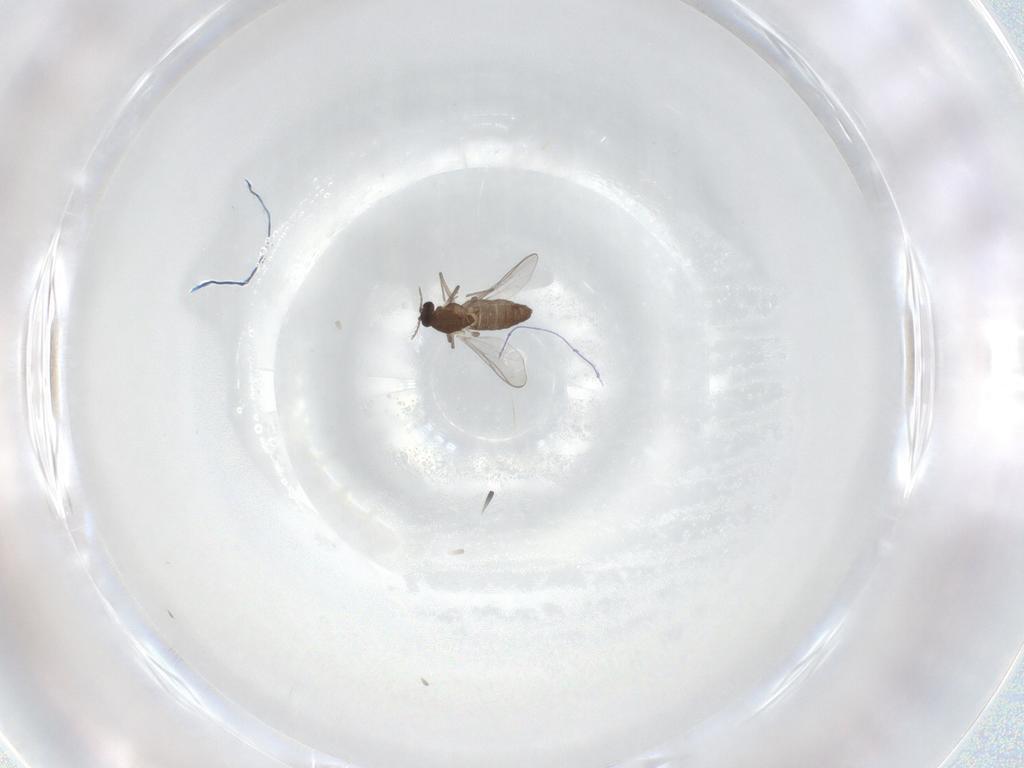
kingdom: Animalia
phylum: Arthropoda
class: Insecta
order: Diptera
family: Chironomidae
